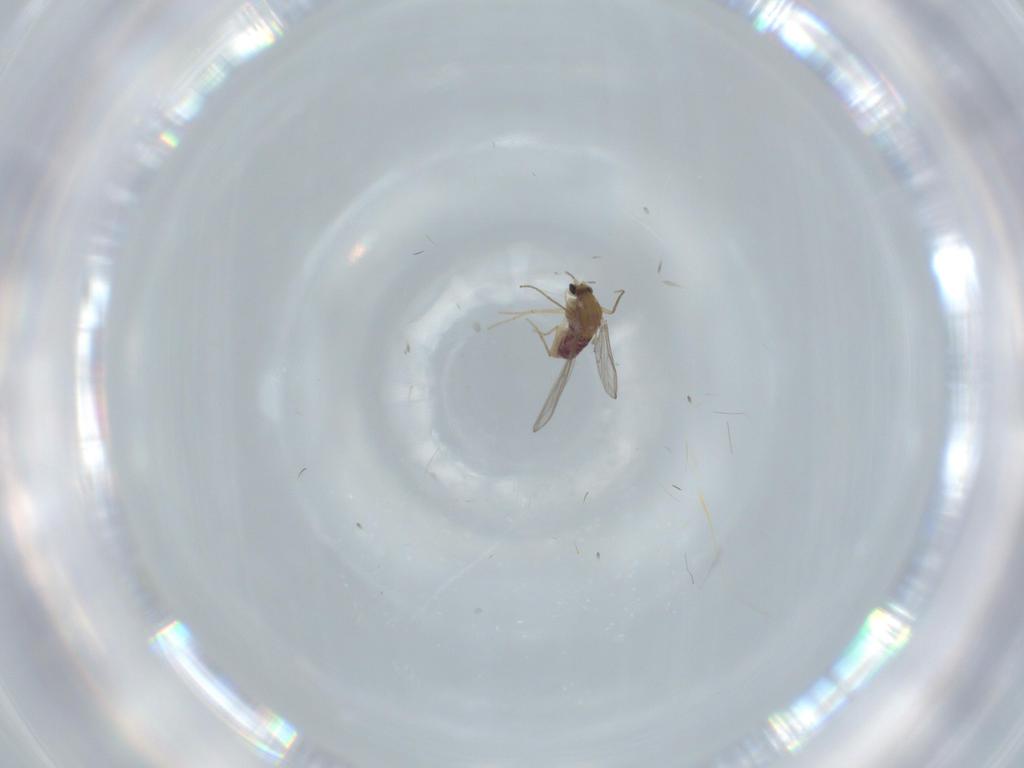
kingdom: Animalia
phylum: Arthropoda
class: Insecta
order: Diptera
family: Chironomidae
